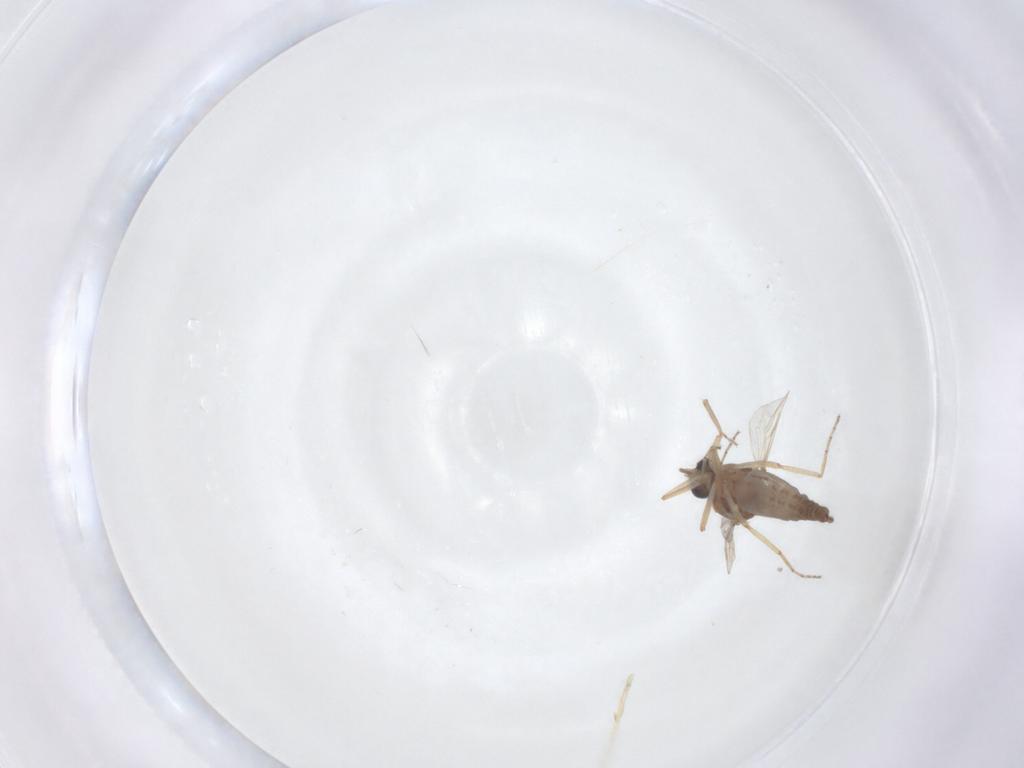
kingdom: Animalia
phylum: Arthropoda
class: Insecta
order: Diptera
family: Ceratopogonidae
